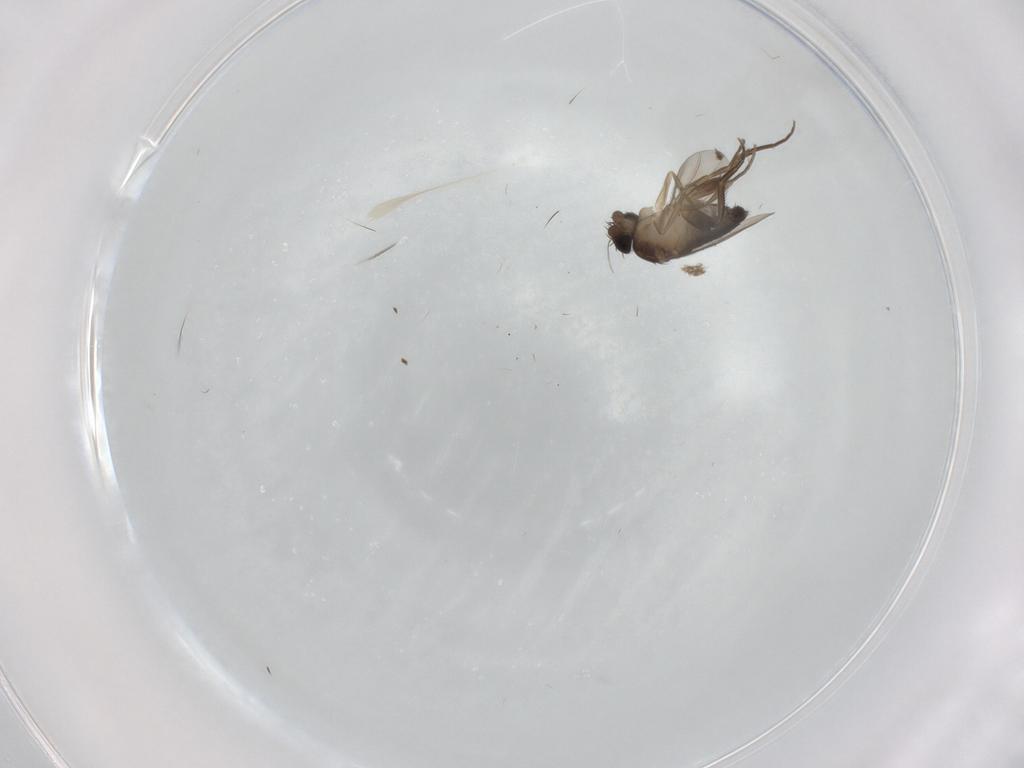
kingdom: Animalia
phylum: Arthropoda
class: Insecta
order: Diptera
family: Phoridae
